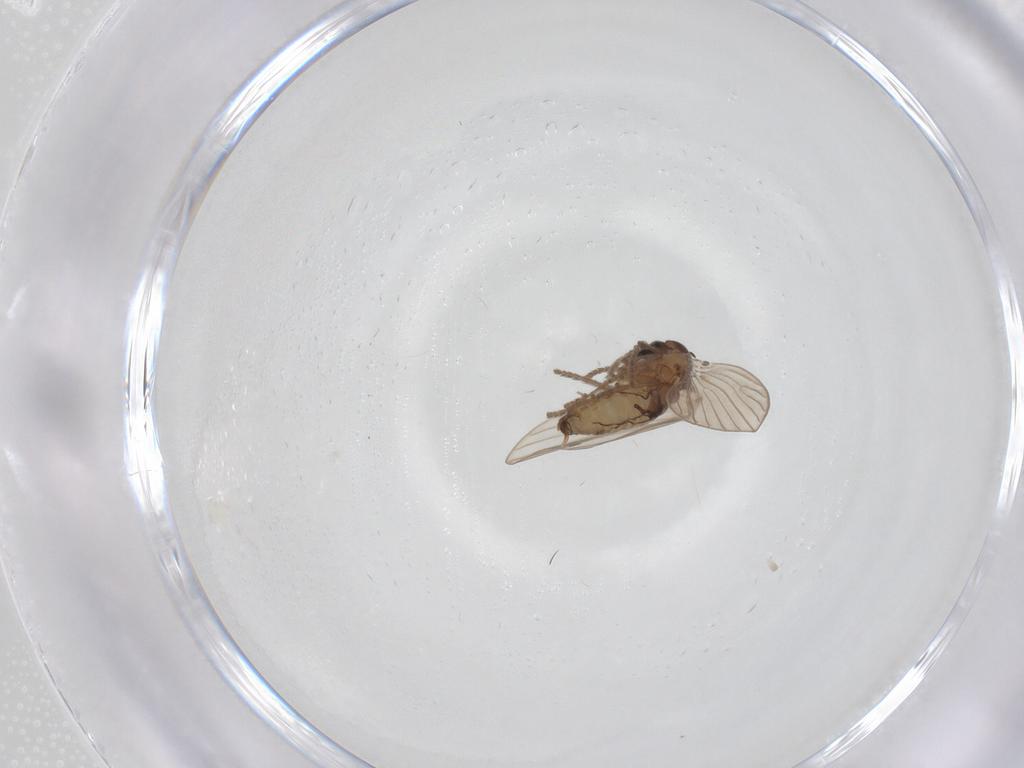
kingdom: Animalia
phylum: Arthropoda
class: Insecta
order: Diptera
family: Psychodidae
